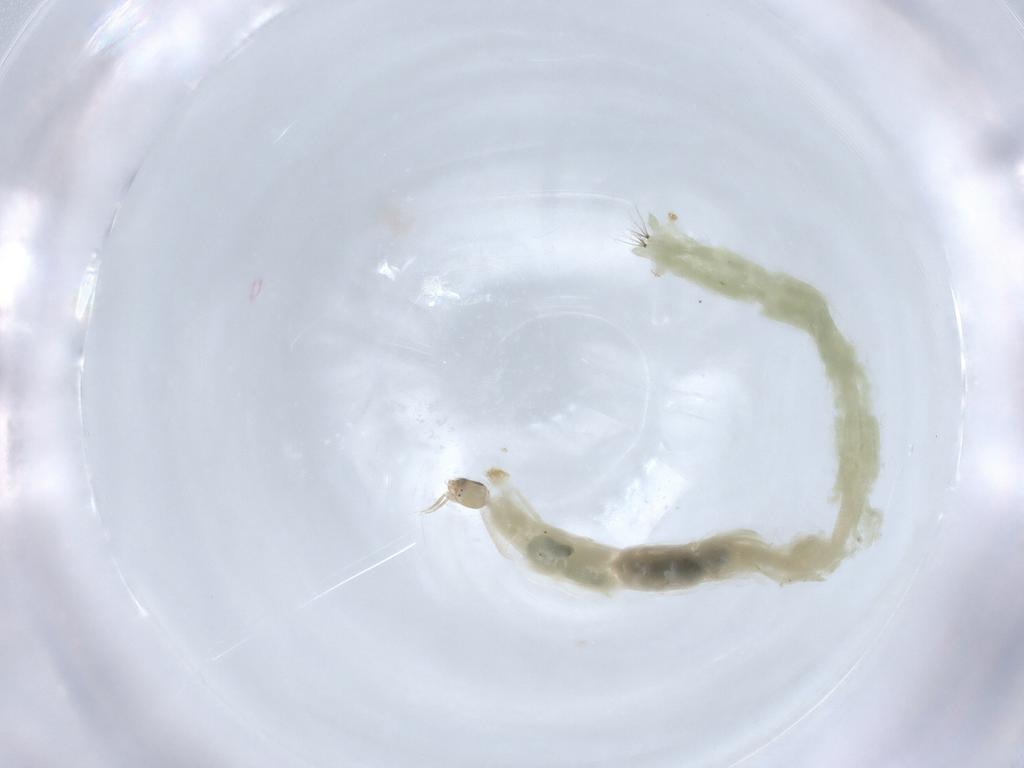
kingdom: Animalia
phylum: Arthropoda
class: Insecta
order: Diptera
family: Chironomidae
